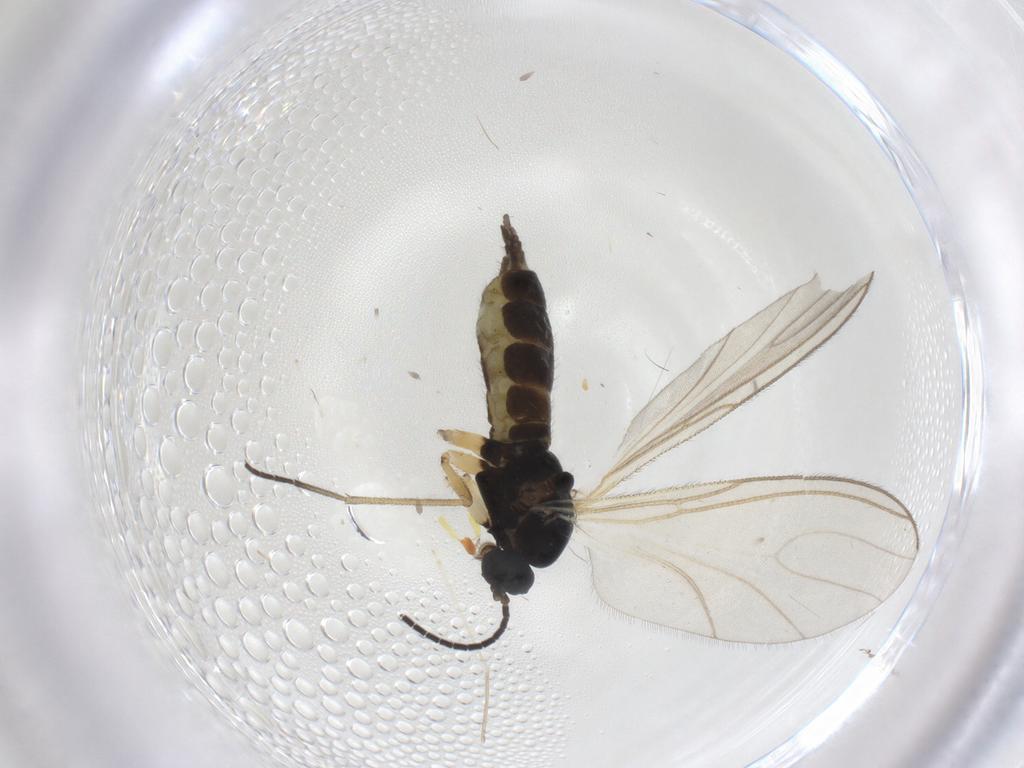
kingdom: Animalia
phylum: Arthropoda
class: Insecta
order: Diptera
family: Sciaridae
